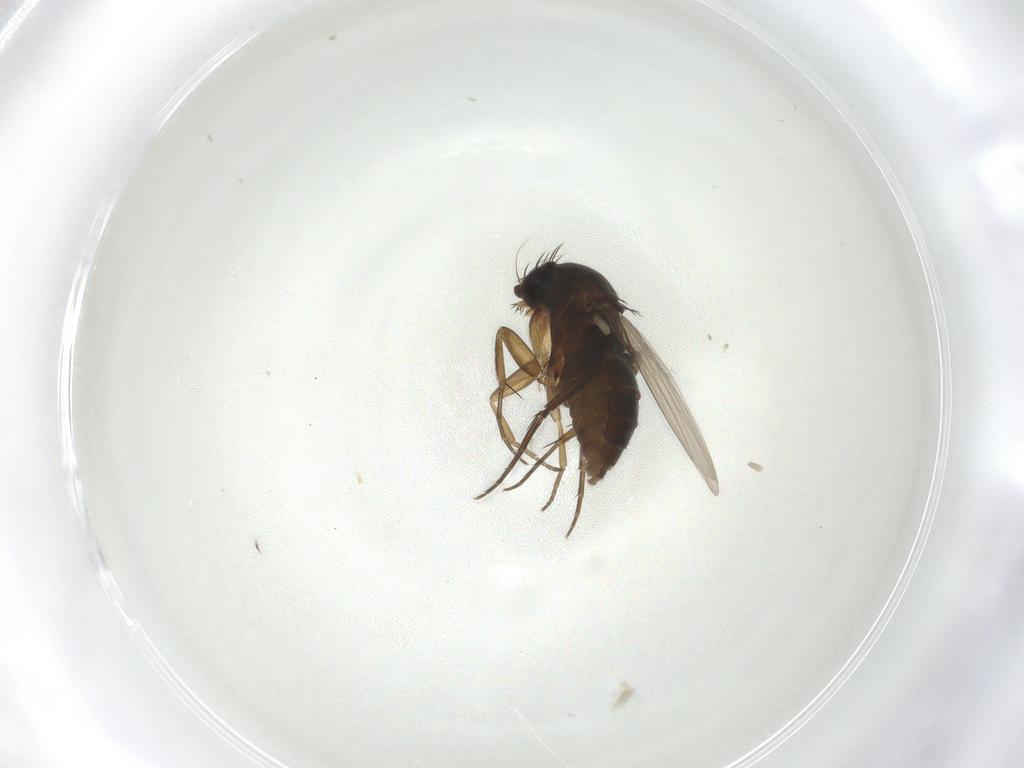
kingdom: Animalia
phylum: Arthropoda
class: Insecta
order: Diptera
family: Phoridae
